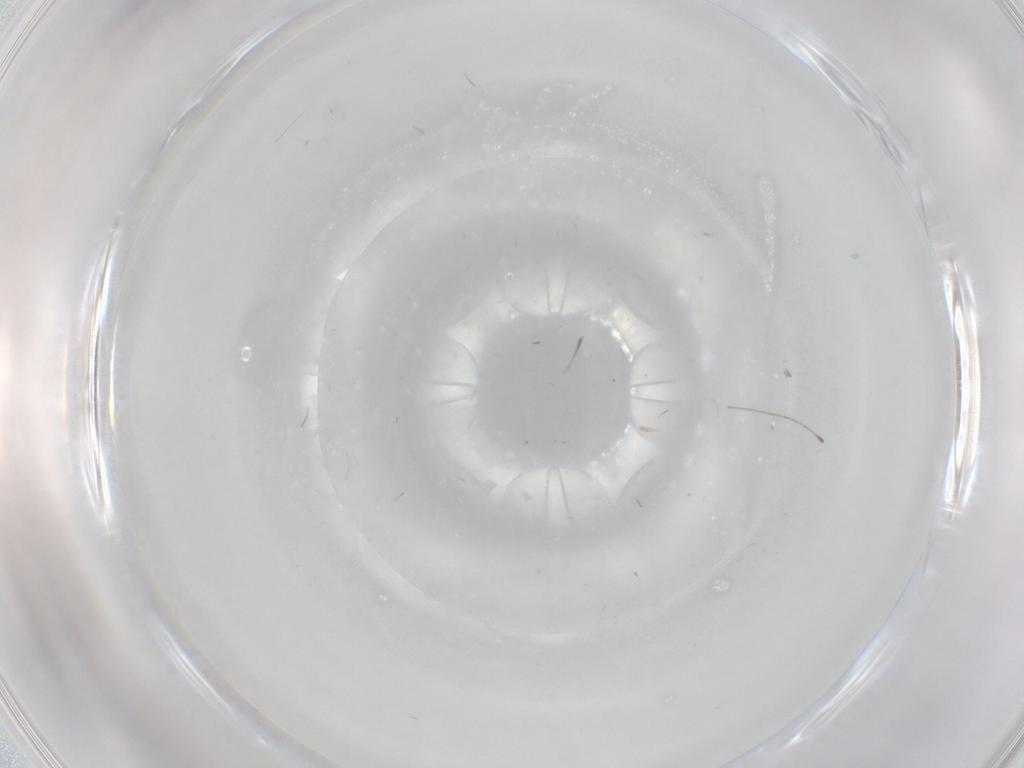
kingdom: Animalia
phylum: Arthropoda
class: Insecta
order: Diptera
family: Cecidomyiidae
